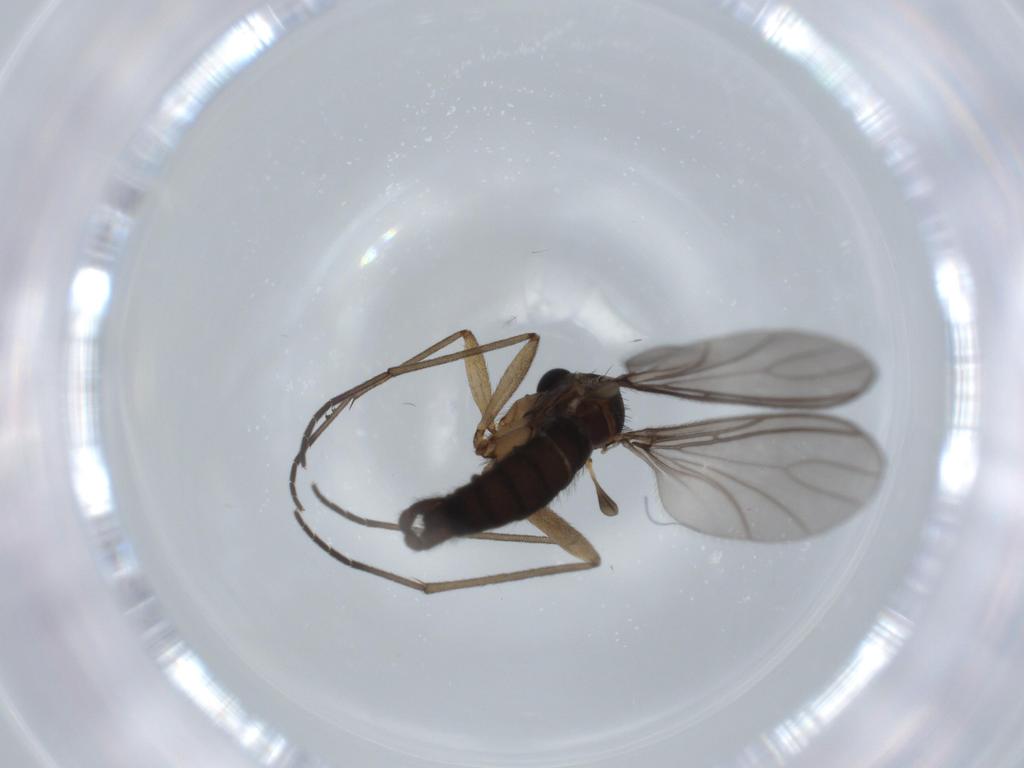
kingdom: Animalia
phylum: Arthropoda
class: Insecta
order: Diptera
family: Sciaridae
